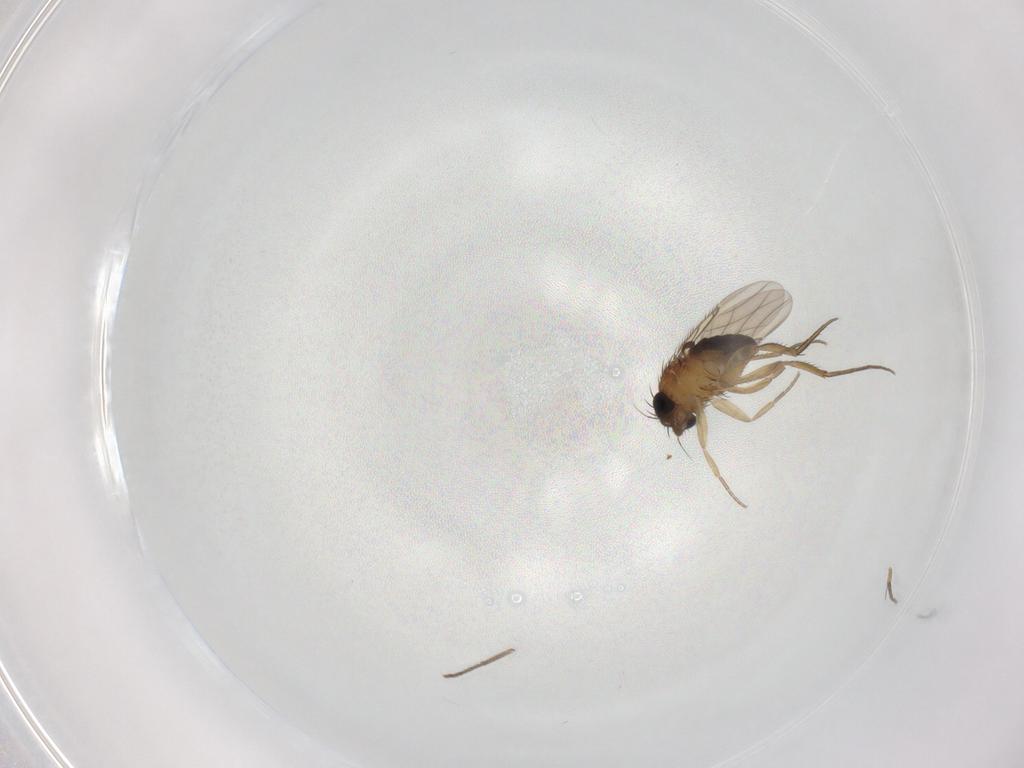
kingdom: Animalia
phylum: Arthropoda
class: Insecta
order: Diptera
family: Phoridae
